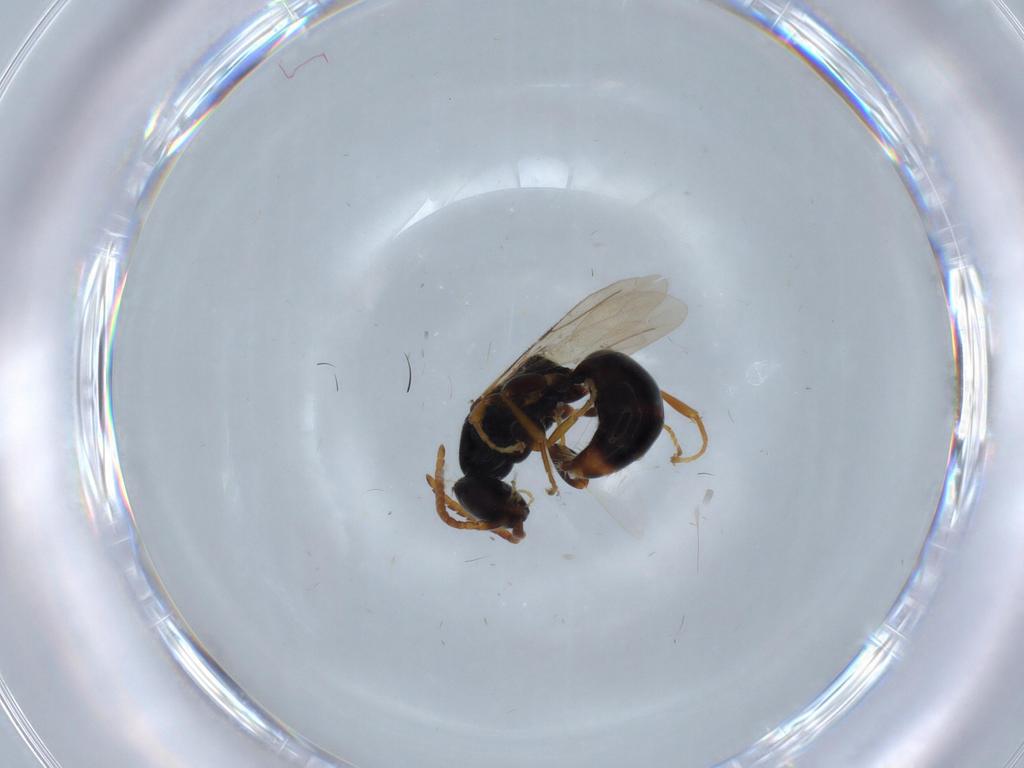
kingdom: Animalia
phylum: Arthropoda
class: Insecta
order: Hymenoptera
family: Bethylidae
